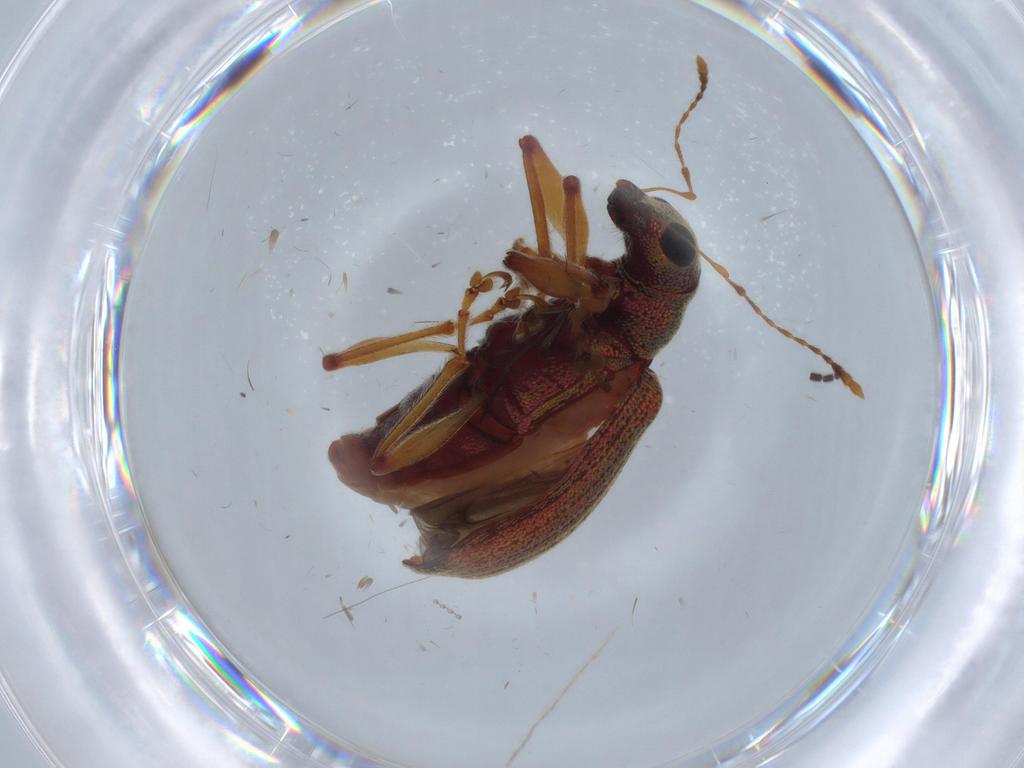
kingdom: Animalia
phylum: Arthropoda
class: Insecta
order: Coleoptera
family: Curculionidae
